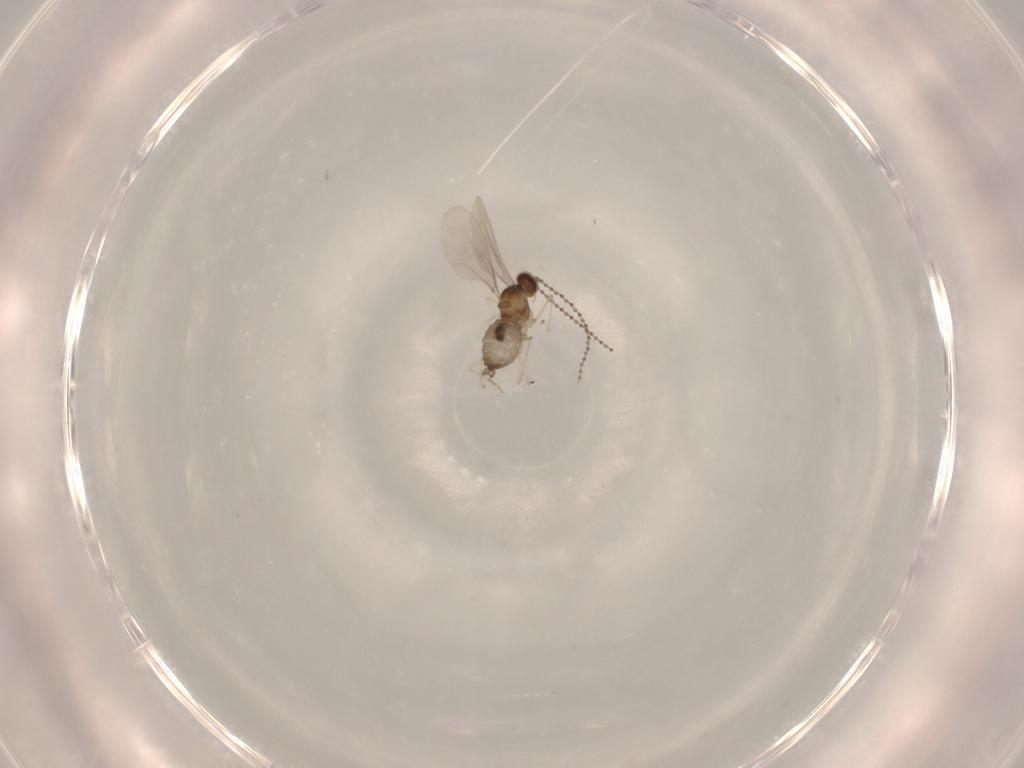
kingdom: Animalia
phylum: Arthropoda
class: Insecta
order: Diptera
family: Cecidomyiidae
